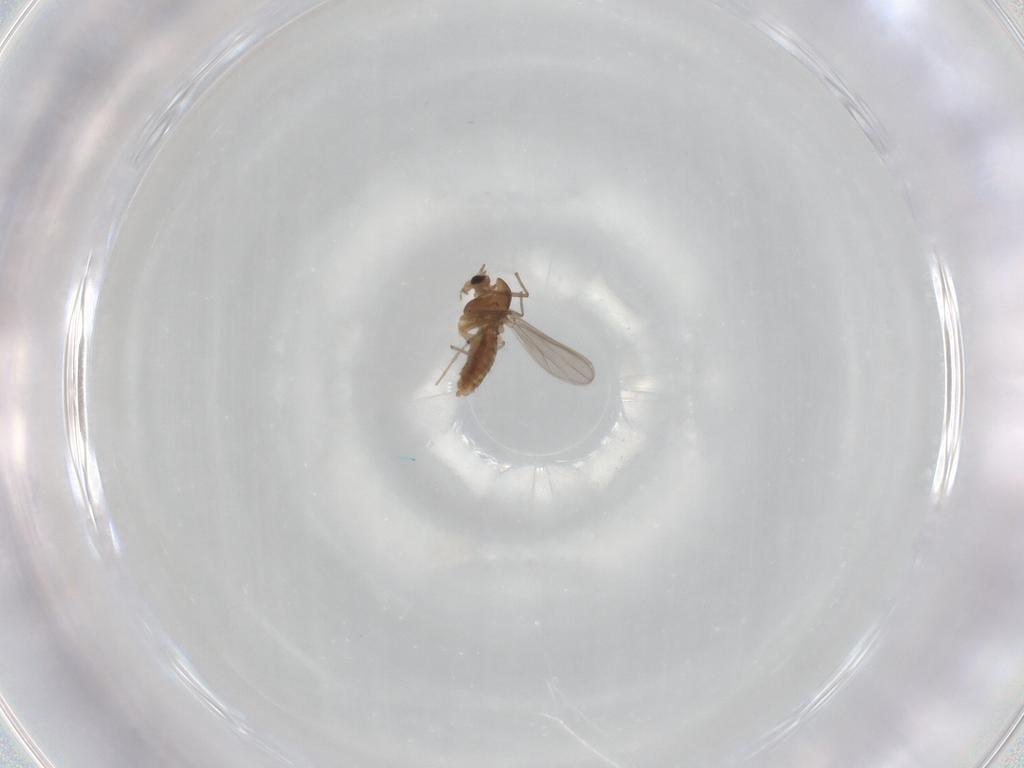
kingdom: Animalia
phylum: Arthropoda
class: Insecta
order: Diptera
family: Chironomidae
